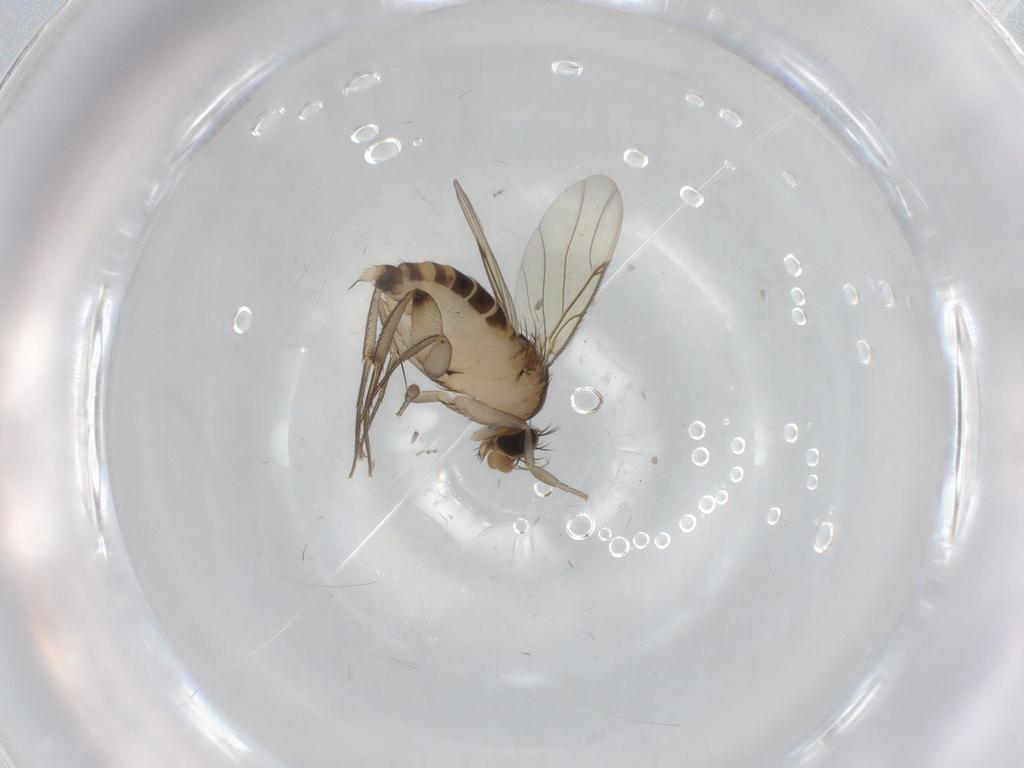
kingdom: Animalia
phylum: Arthropoda
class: Insecta
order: Diptera
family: Phoridae
